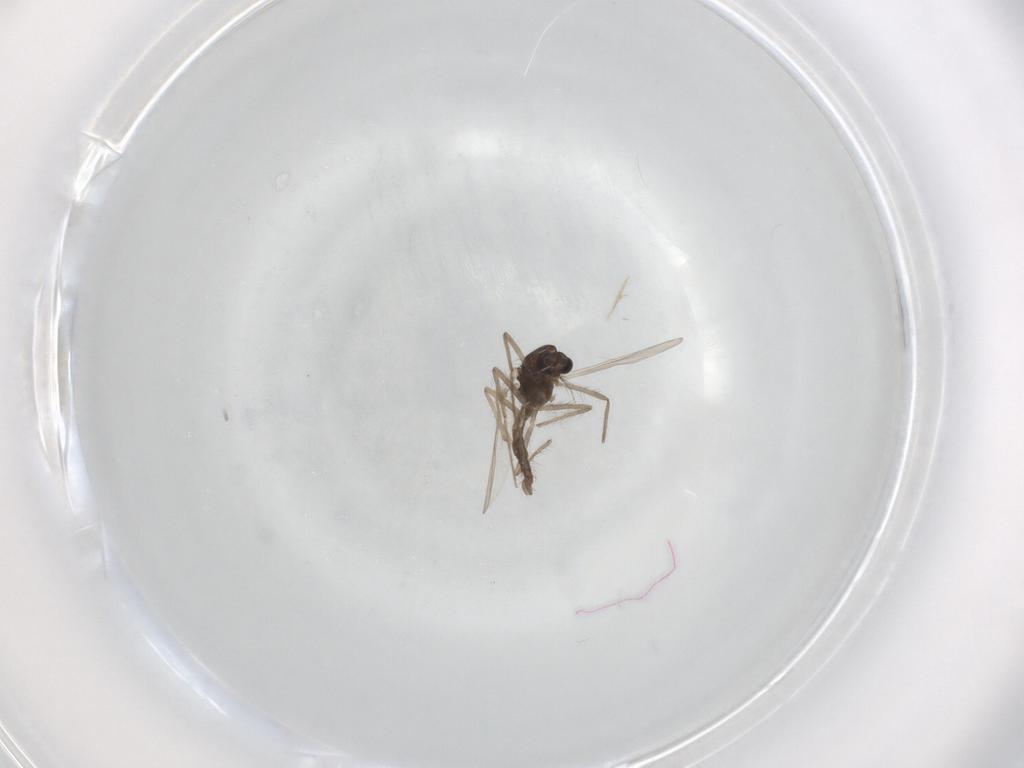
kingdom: Animalia
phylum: Arthropoda
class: Insecta
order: Diptera
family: Chironomidae
